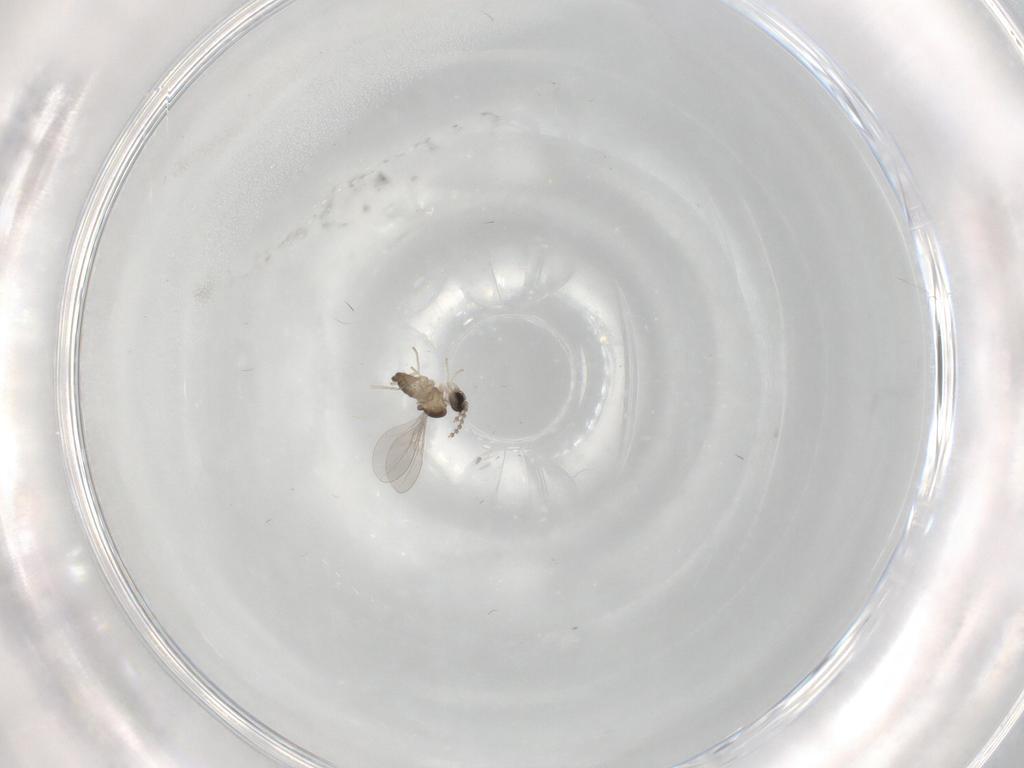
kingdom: Animalia
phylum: Arthropoda
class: Insecta
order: Diptera
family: Cecidomyiidae
